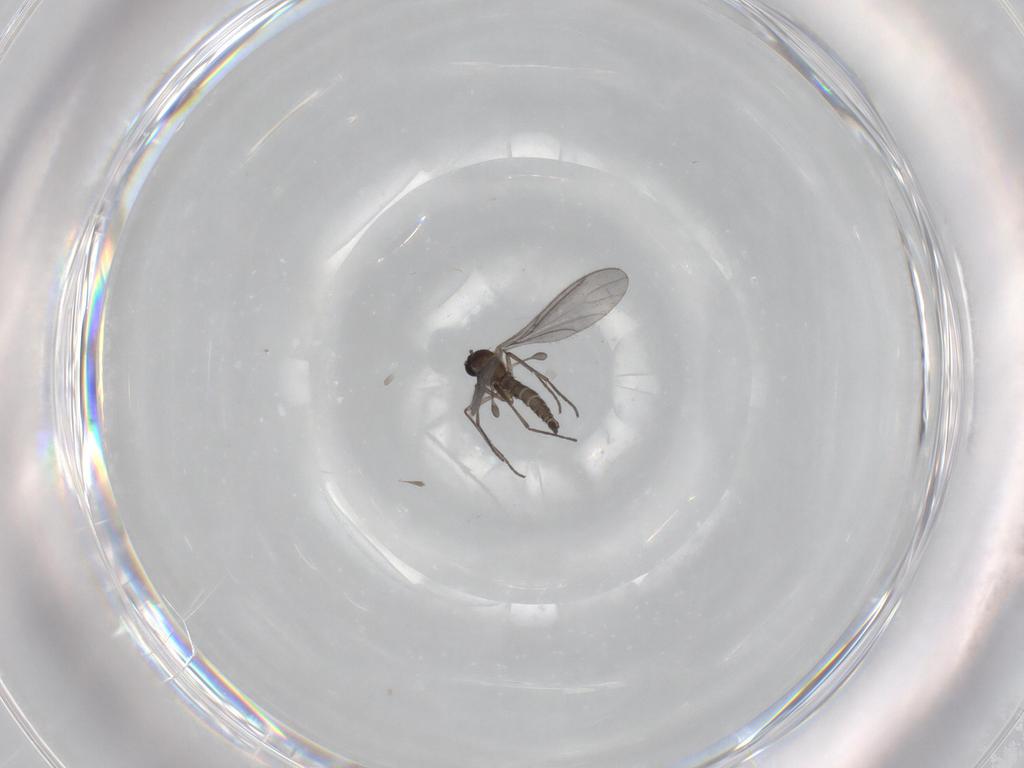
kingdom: Animalia
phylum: Arthropoda
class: Insecta
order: Diptera
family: Sciaridae
